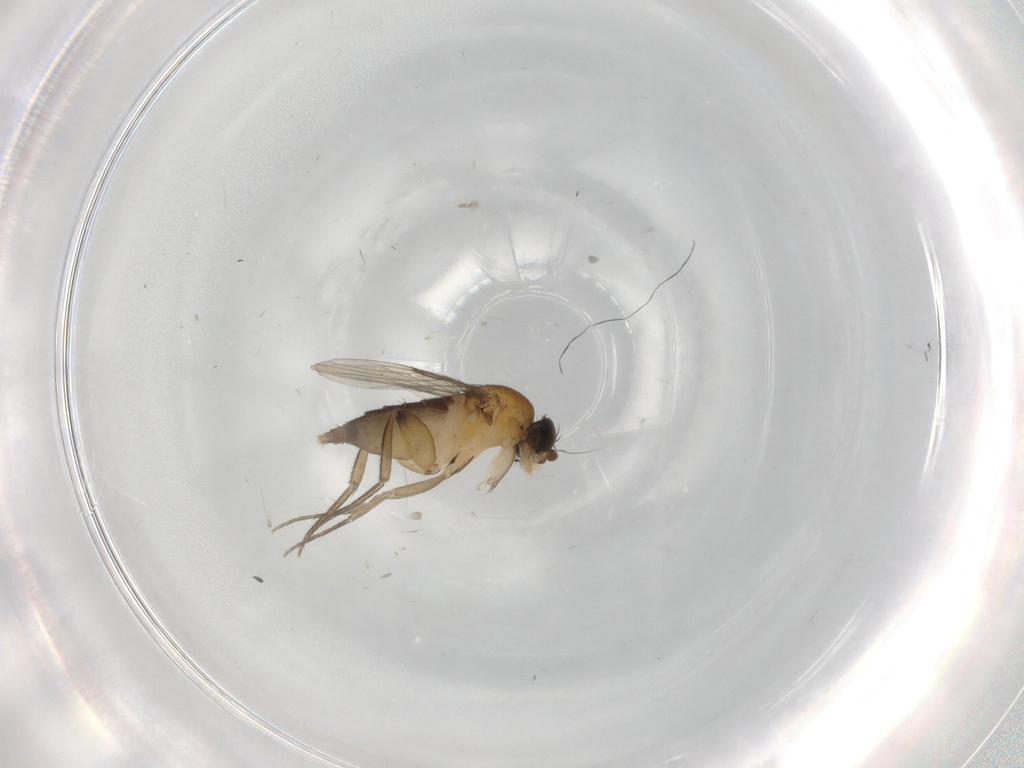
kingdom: Animalia
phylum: Arthropoda
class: Insecta
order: Diptera
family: Phoridae
